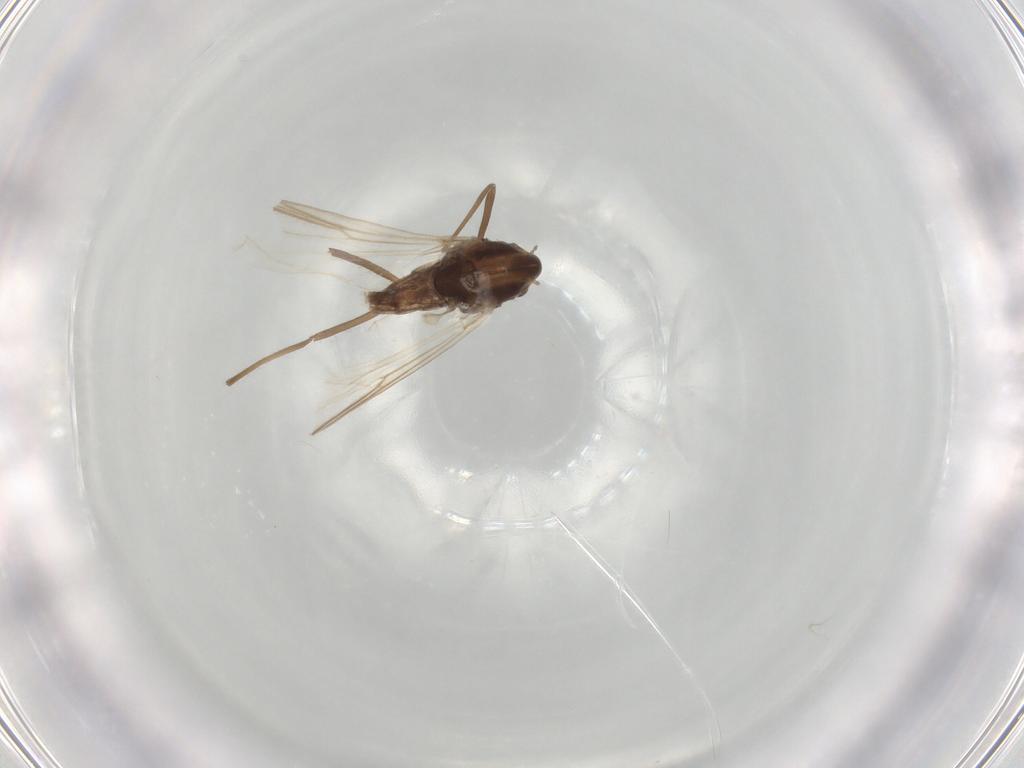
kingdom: Animalia
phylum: Arthropoda
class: Insecta
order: Diptera
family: Chironomidae
